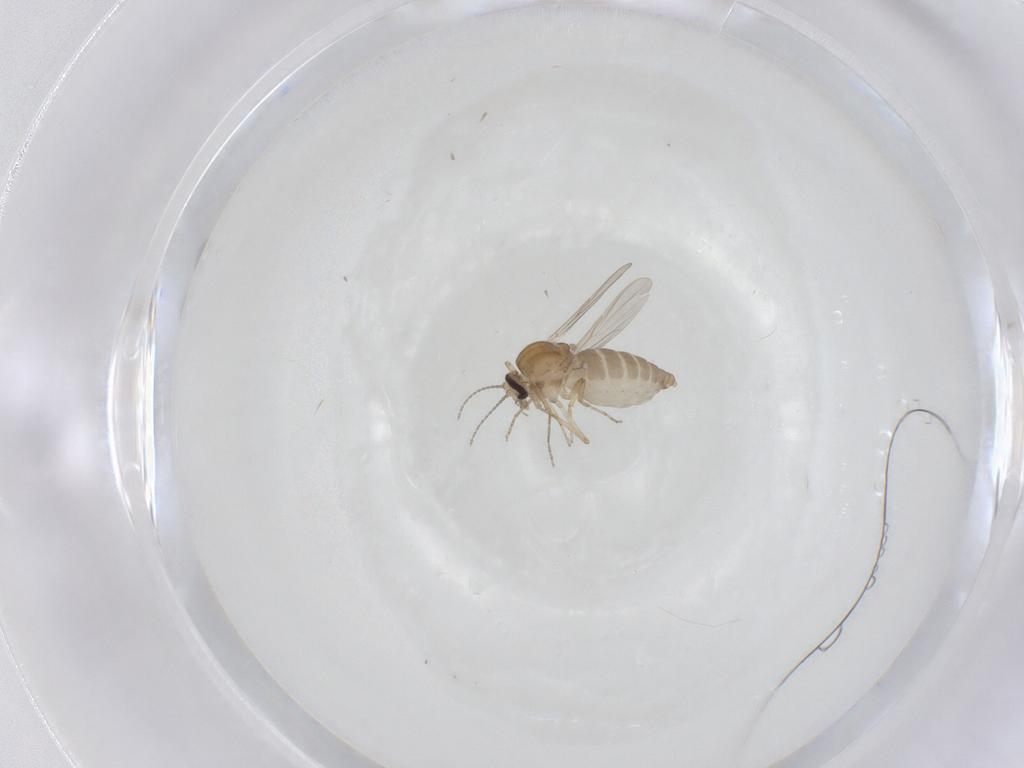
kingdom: Animalia
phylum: Arthropoda
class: Insecta
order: Diptera
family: Ceratopogonidae
